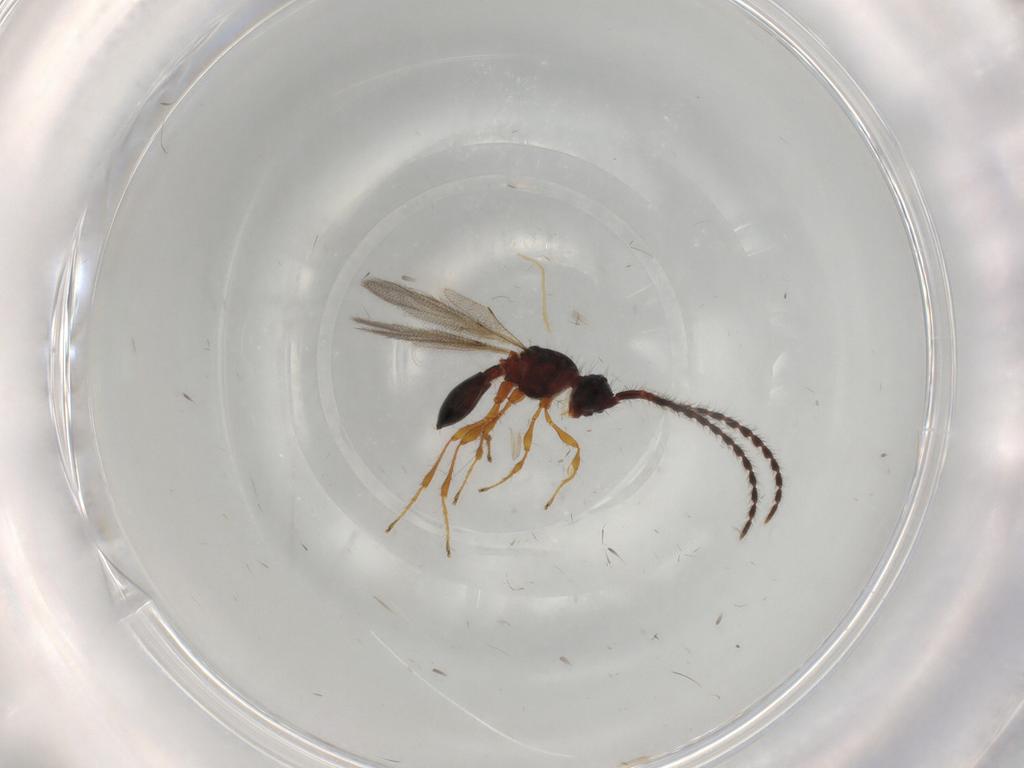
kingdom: Animalia
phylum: Arthropoda
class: Insecta
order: Hymenoptera
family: Diapriidae
